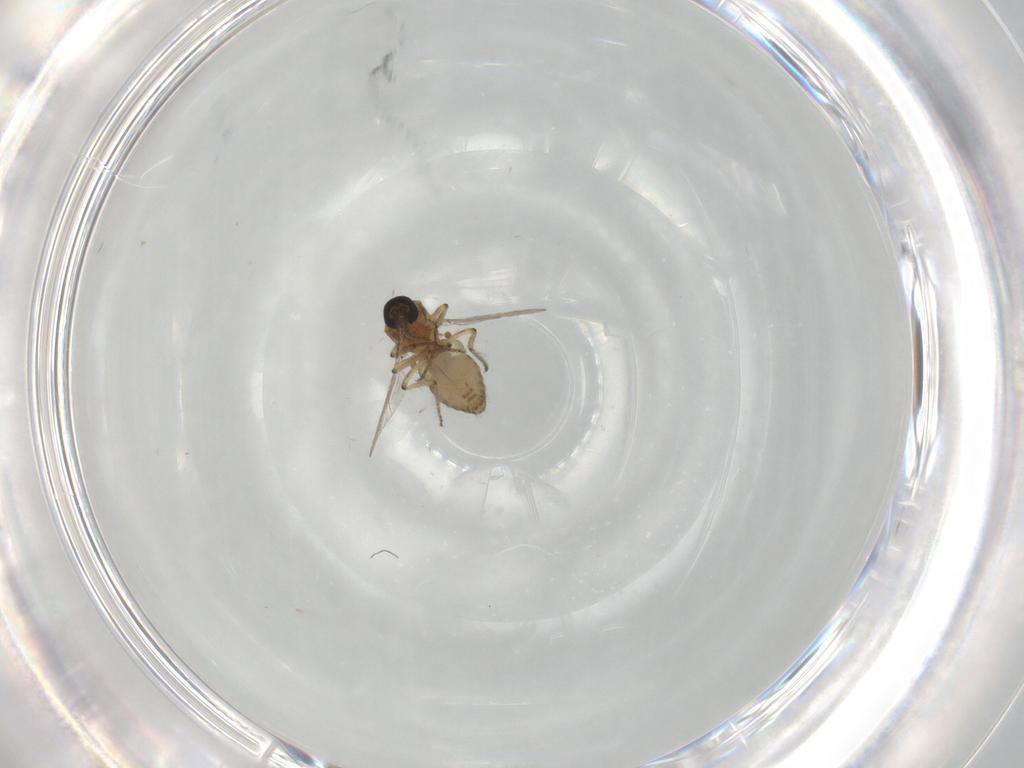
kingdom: Animalia
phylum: Arthropoda
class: Insecta
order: Diptera
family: Ceratopogonidae
